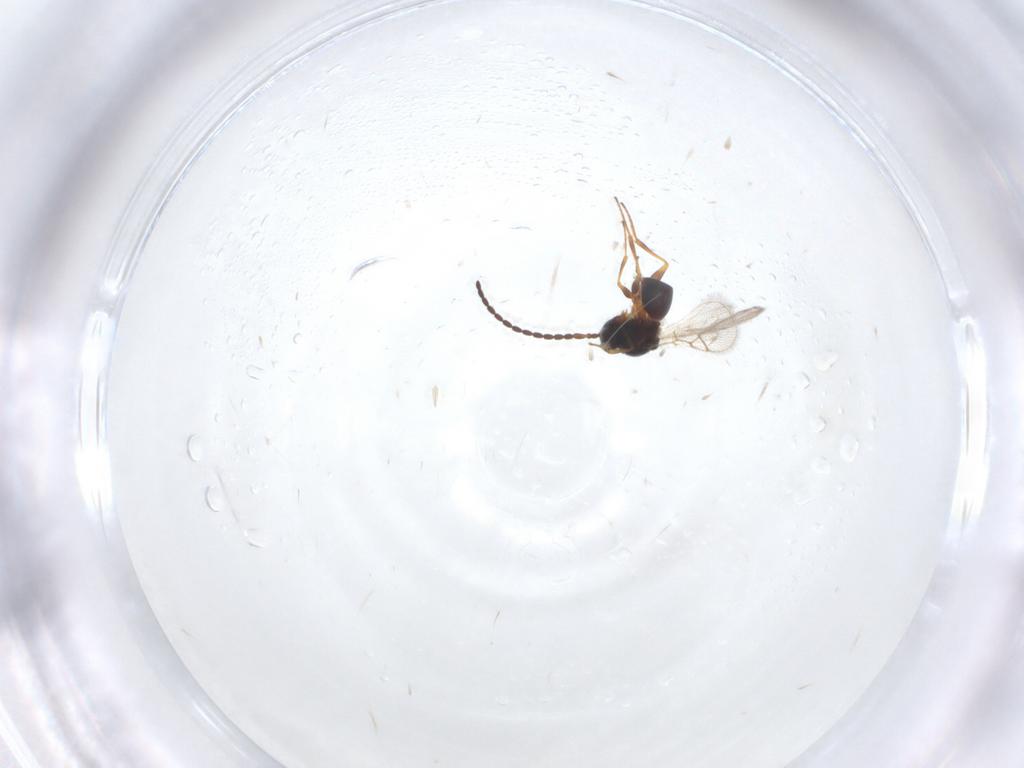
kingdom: Animalia
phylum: Arthropoda
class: Insecta
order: Hymenoptera
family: Figitidae
